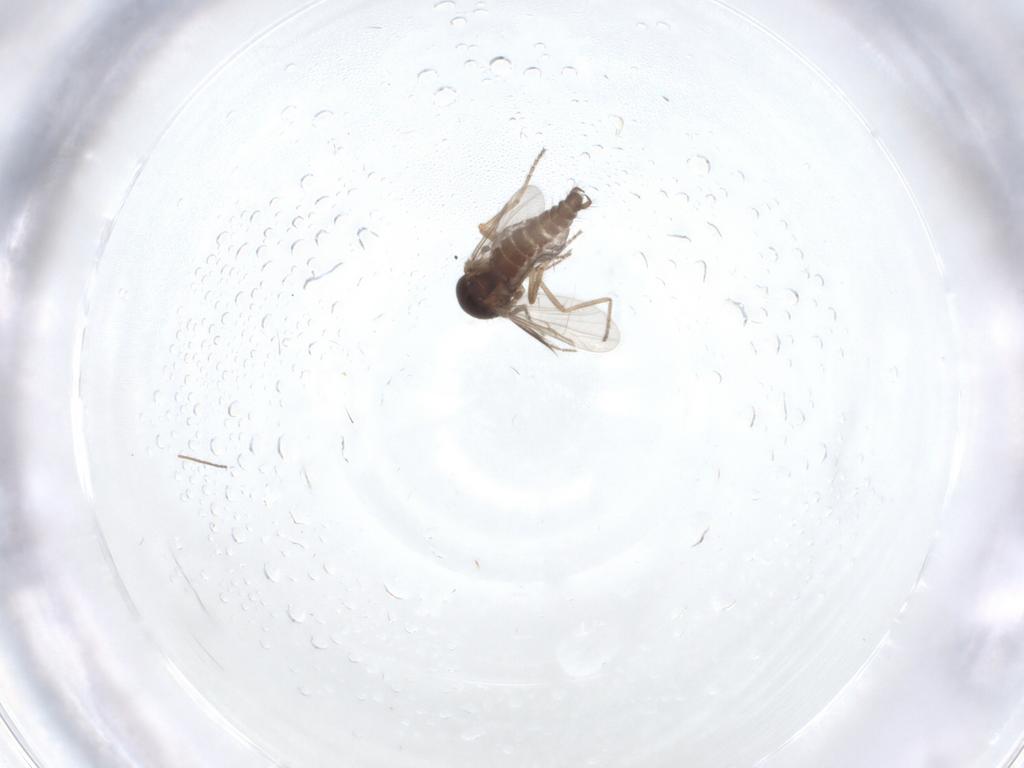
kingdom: Animalia
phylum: Arthropoda
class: Insecta
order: Diptera
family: Ceratopogonidae
